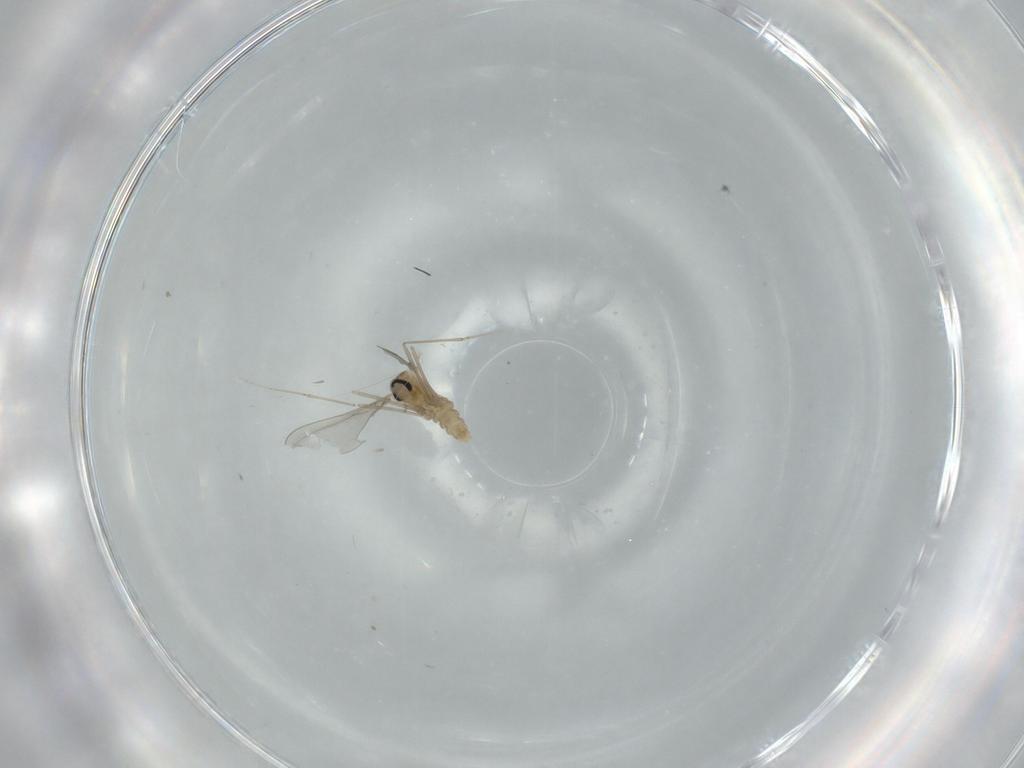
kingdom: Animalia
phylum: Arthropoda
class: Insecta
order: Diptera
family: Cecidomyiidae
